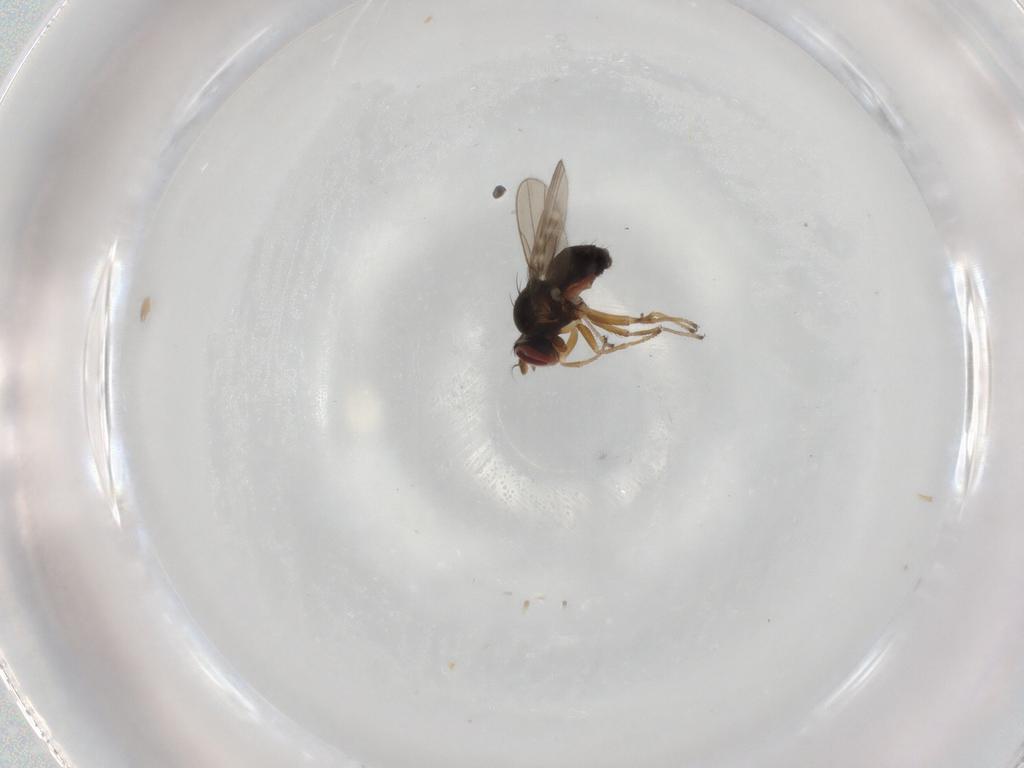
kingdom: Animalia
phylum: Arthropoda
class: Insecta
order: Diptera
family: Ephydridae
